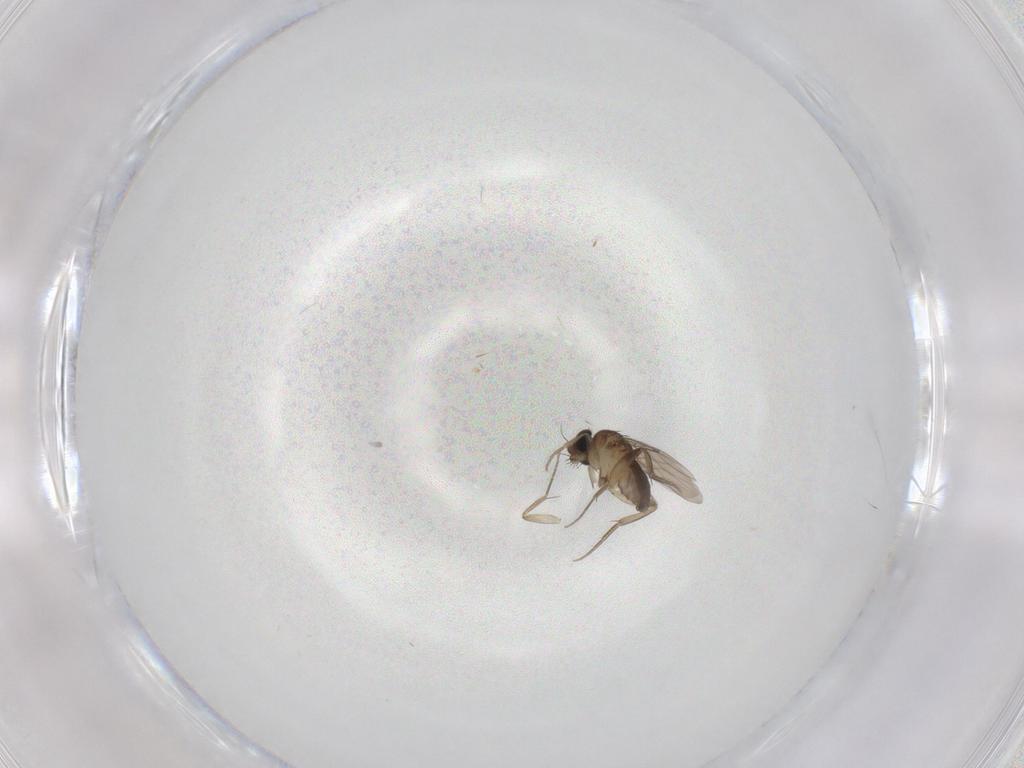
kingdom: Animalia
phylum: Arthropoda
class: Insecta
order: Diptera
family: Phoridae
